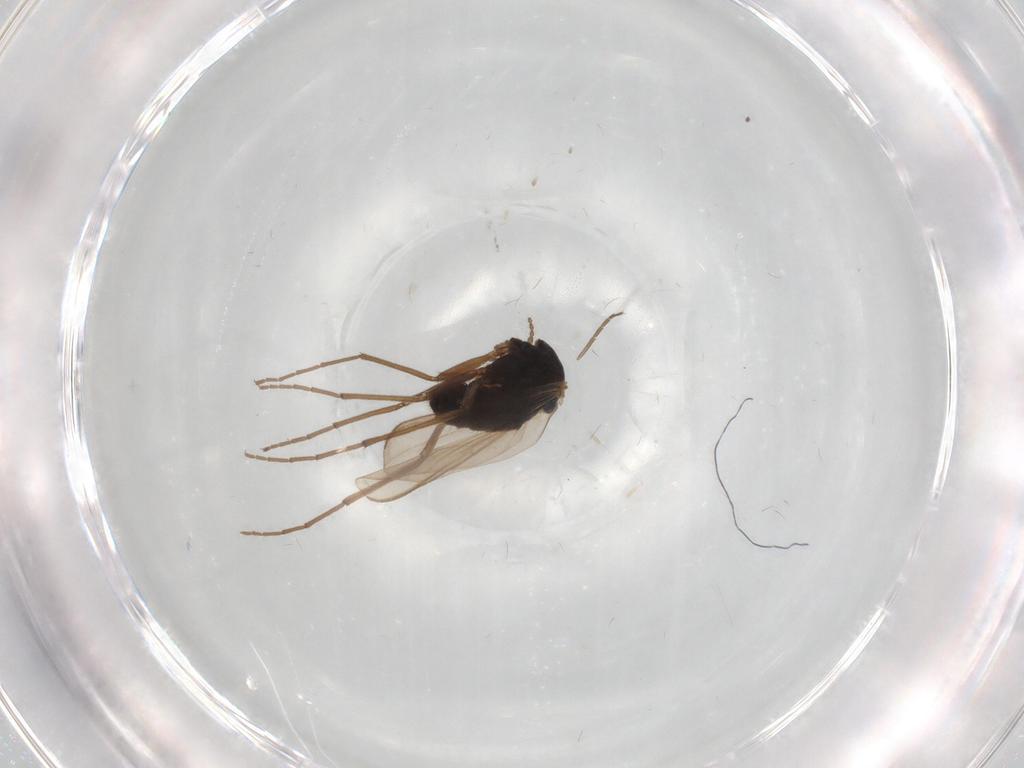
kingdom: Animalia
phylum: Arthropoda
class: Insecta
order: Diptera
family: Chironomidae
